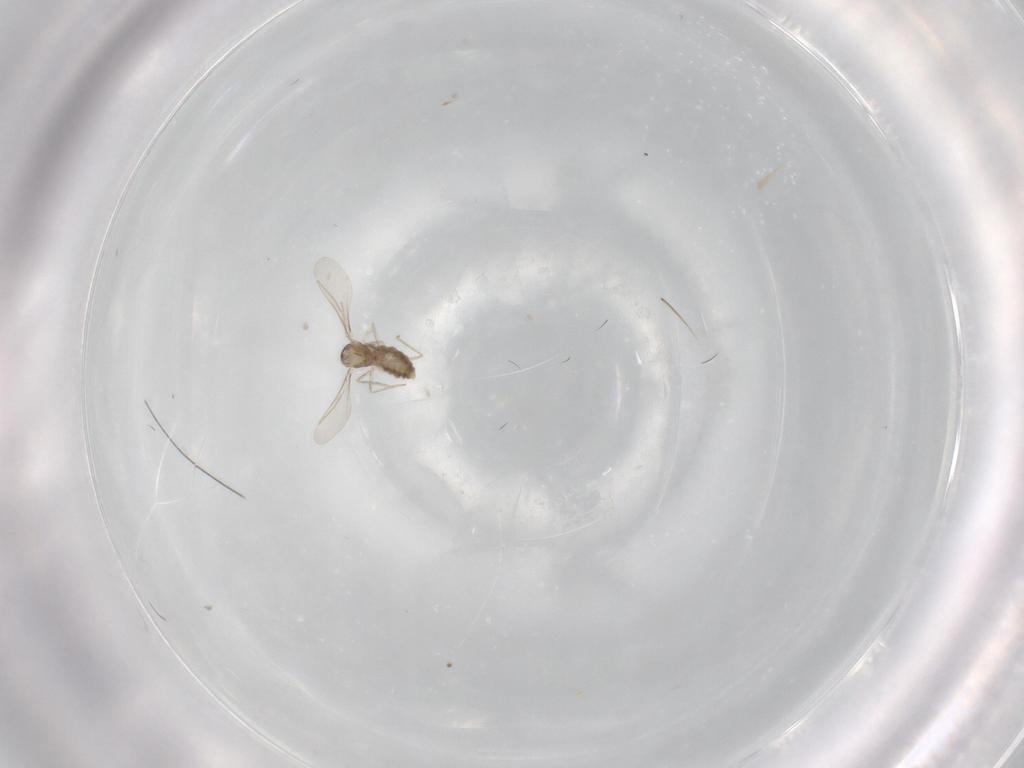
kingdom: Animalia
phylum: Arthropoda
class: Insecta
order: Diptera
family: Cecidomyiidae
